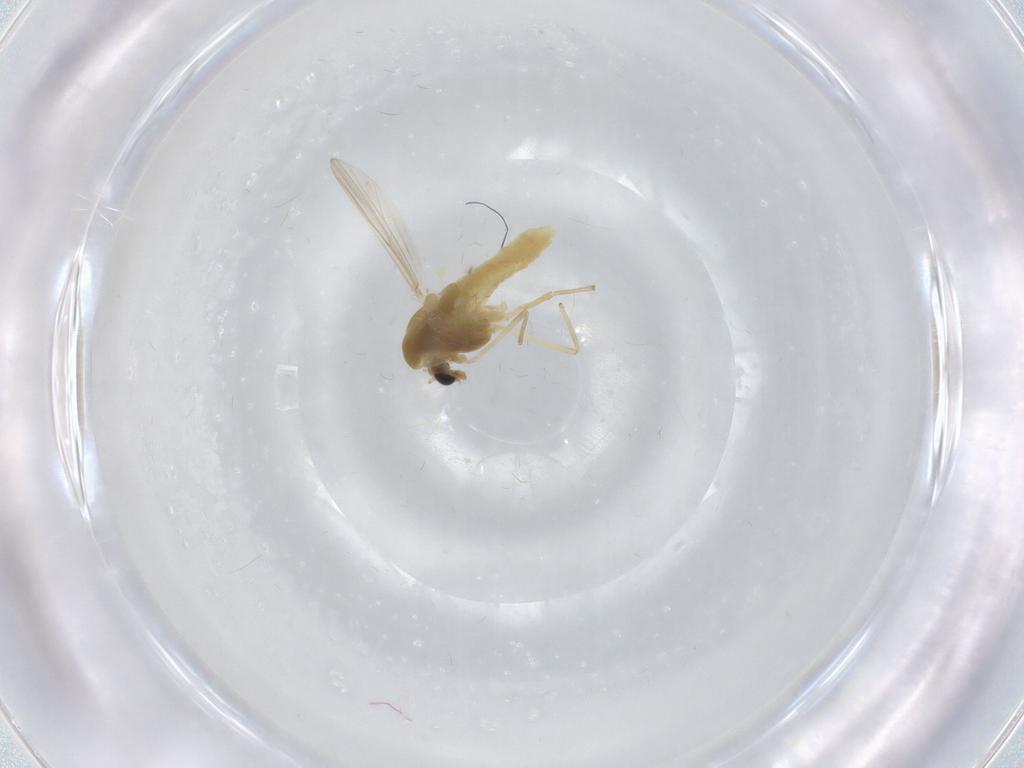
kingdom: Animalia
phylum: Arthropoda
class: Insecta
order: Diptera
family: Chironomidae
